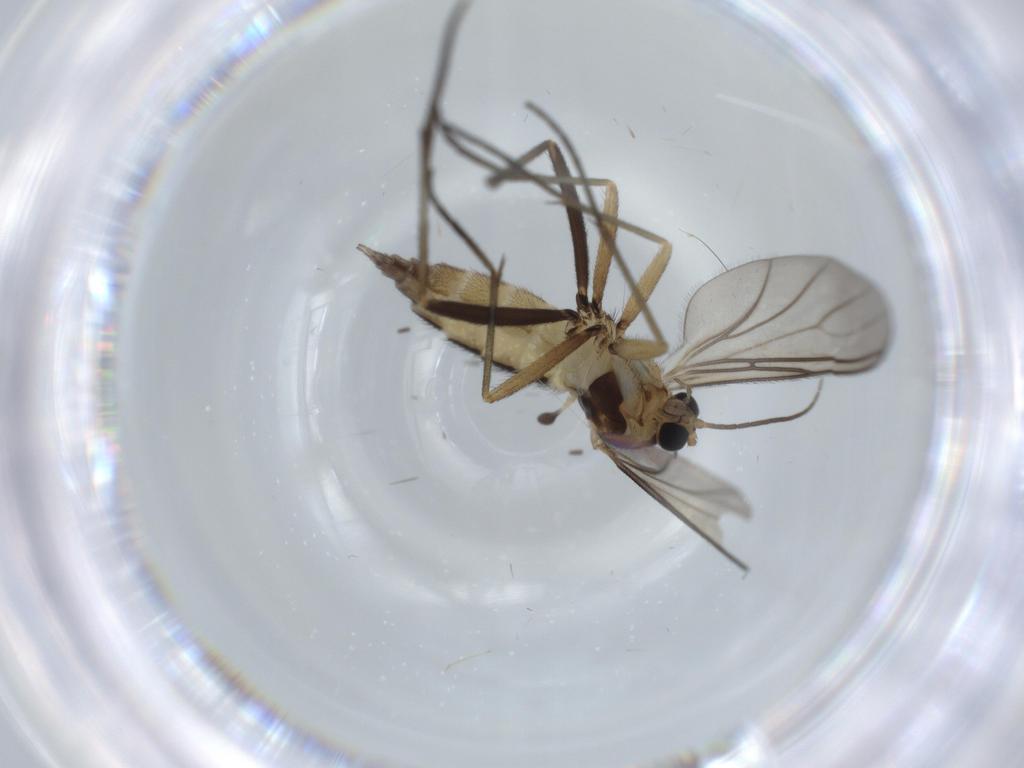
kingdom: Animalia
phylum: Arthropoda
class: Insecta
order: Diptera
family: Sciaridae
